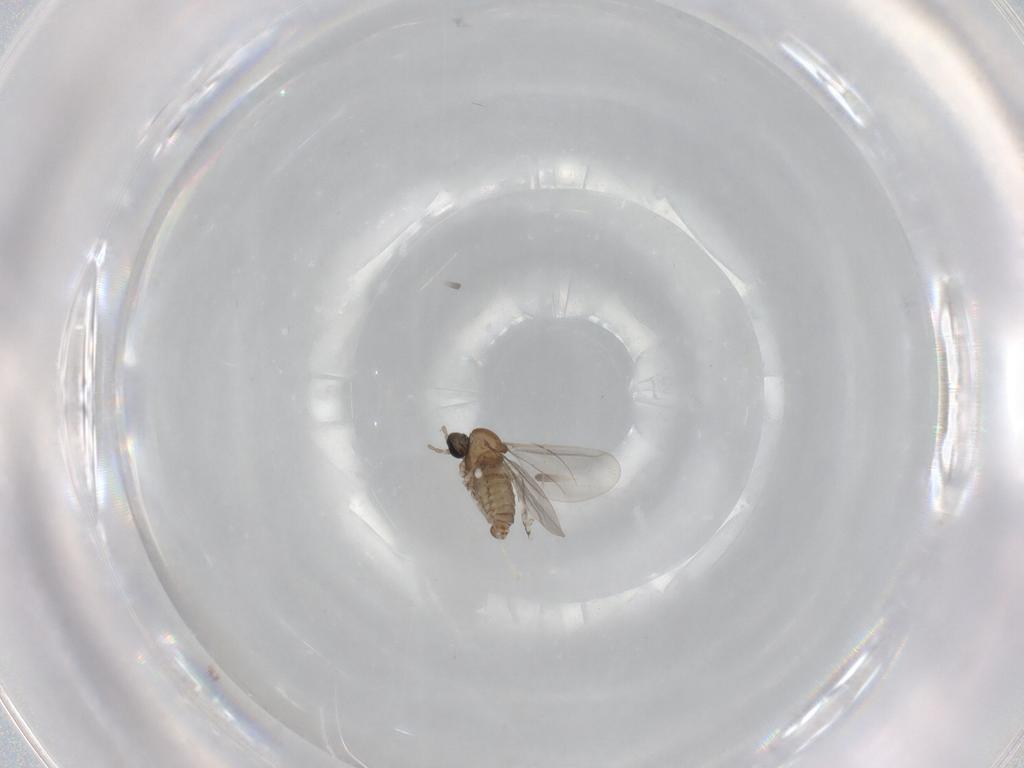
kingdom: Animalia
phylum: Arthropoda
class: Insecta
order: Diptera
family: Cecidomyiidae
